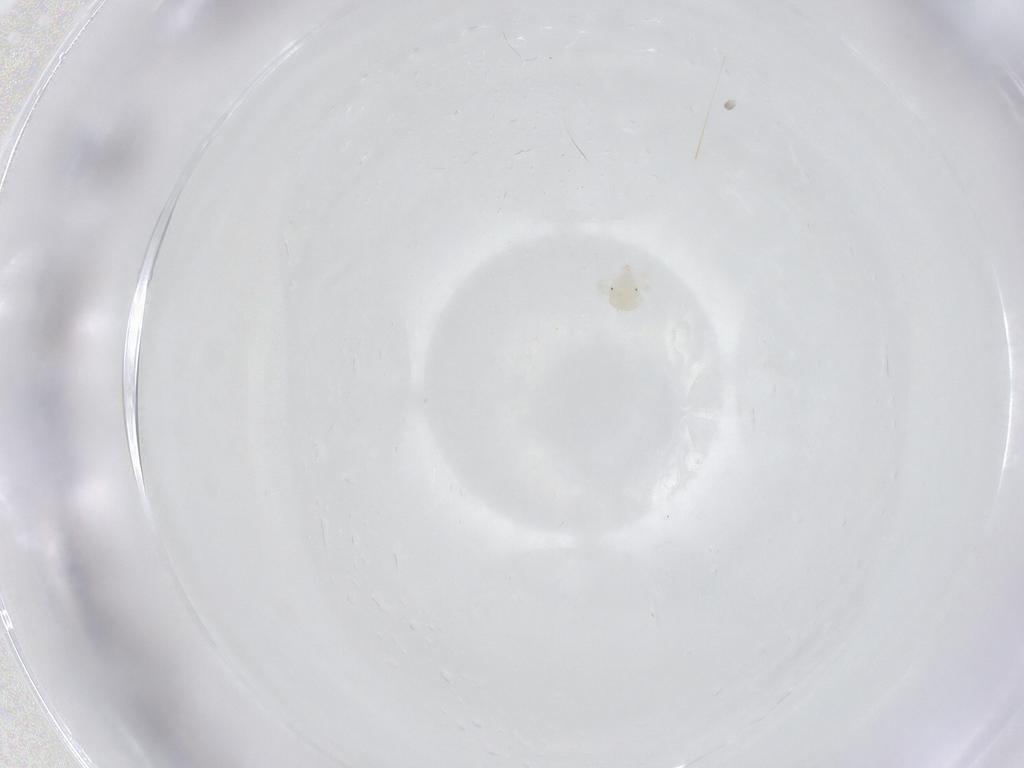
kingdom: Animalia
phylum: Arthropoda
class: Arachnida
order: Trombidiformes
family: Anystidae
